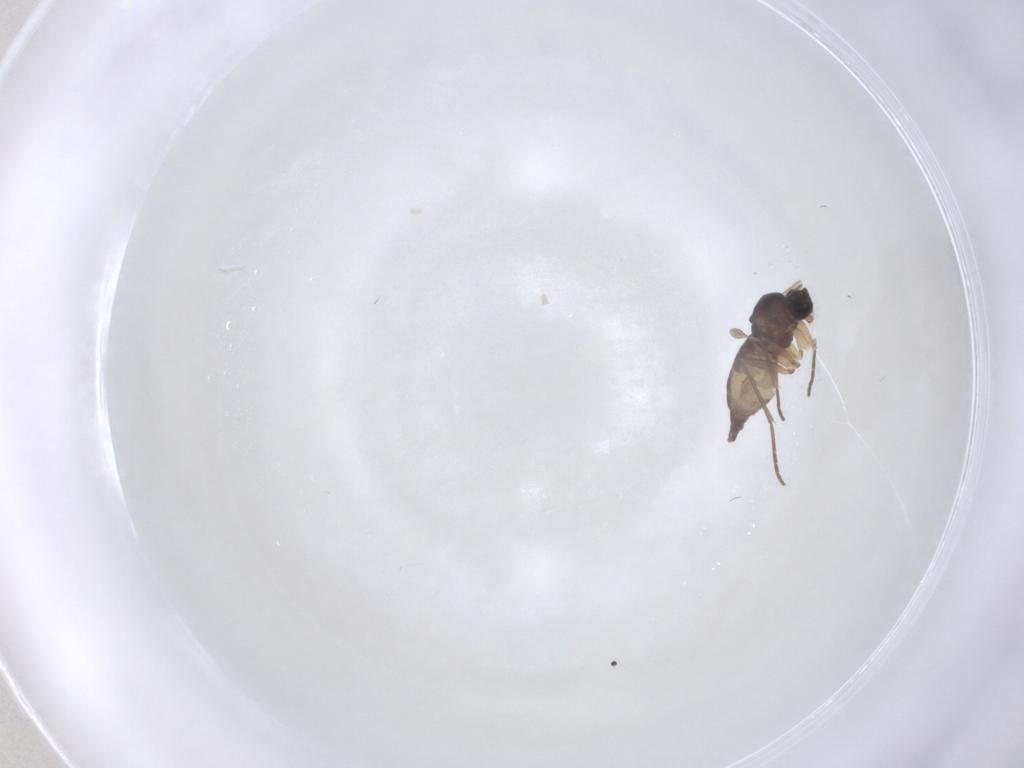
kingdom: Animalia
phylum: Arthropoda
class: Insecta
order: Diptera
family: Sciaridae
